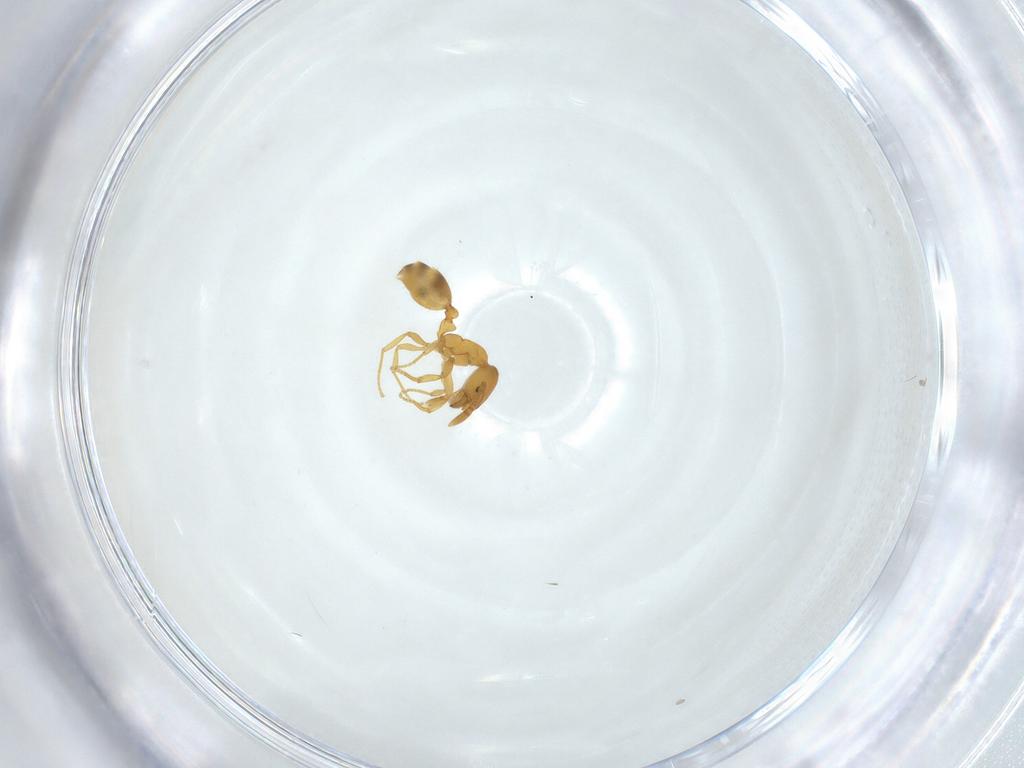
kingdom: Animalia
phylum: Arthropoda
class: Insecta
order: Hymenoptera
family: Formicidae
